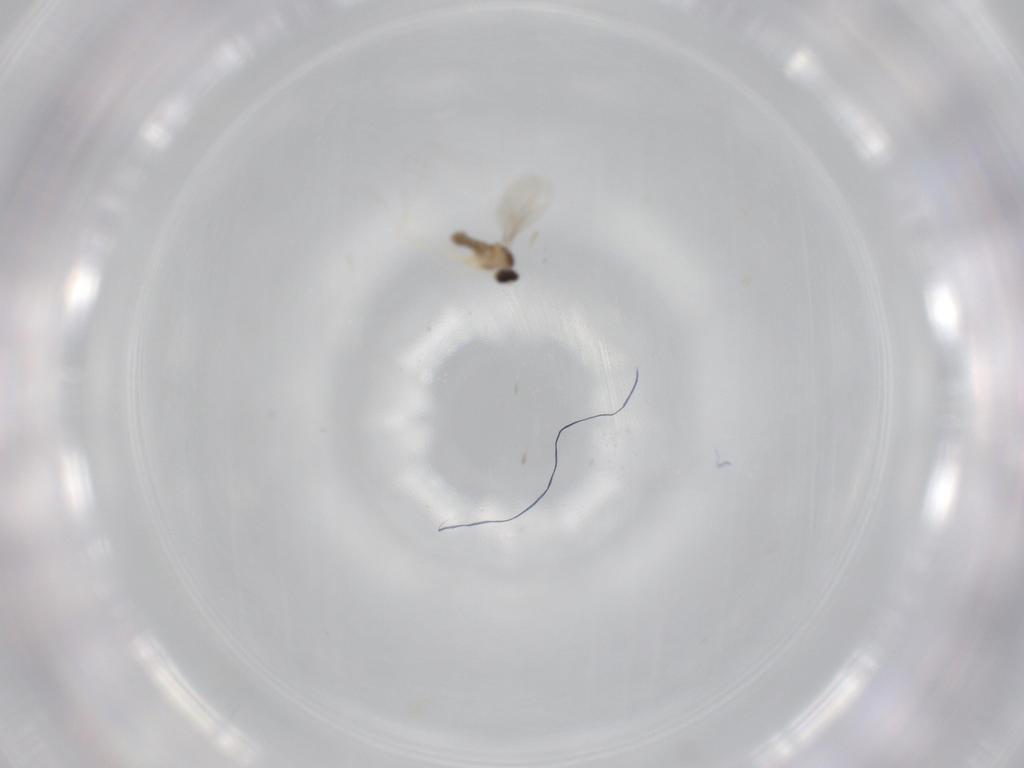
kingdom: Animalia
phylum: Arthropoda
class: Insecta
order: Diptera
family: Cecidomyiidae
